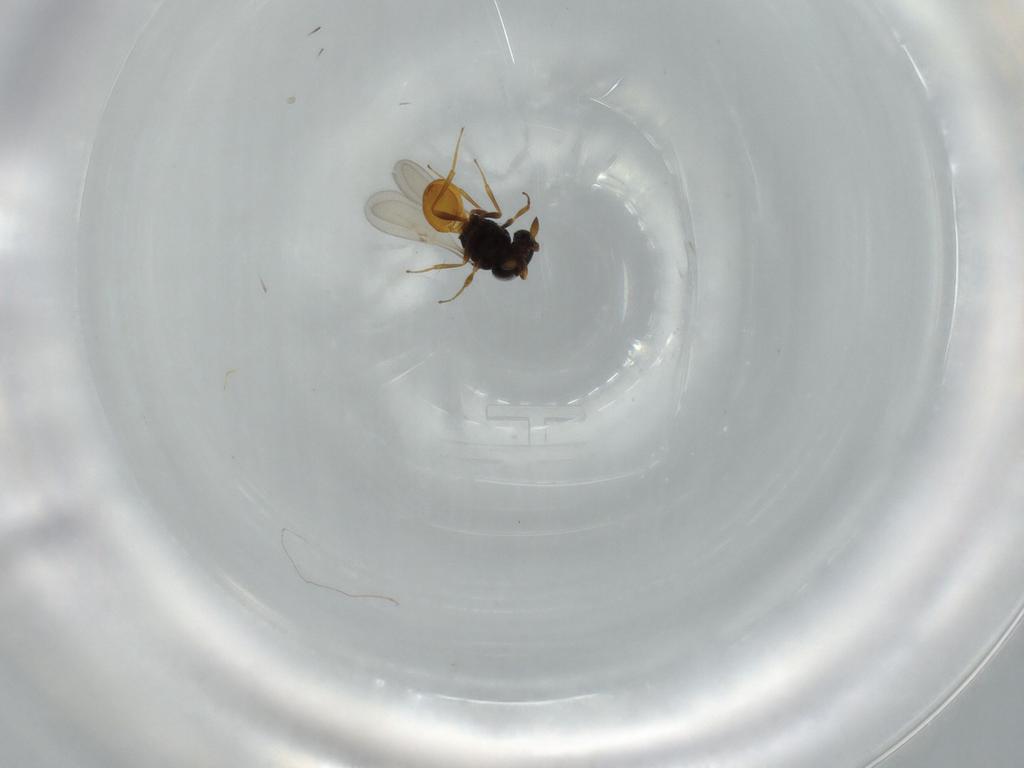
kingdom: Animalia
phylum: Arthropoda
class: Insecta
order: Hymenoptera
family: Scelionidae
